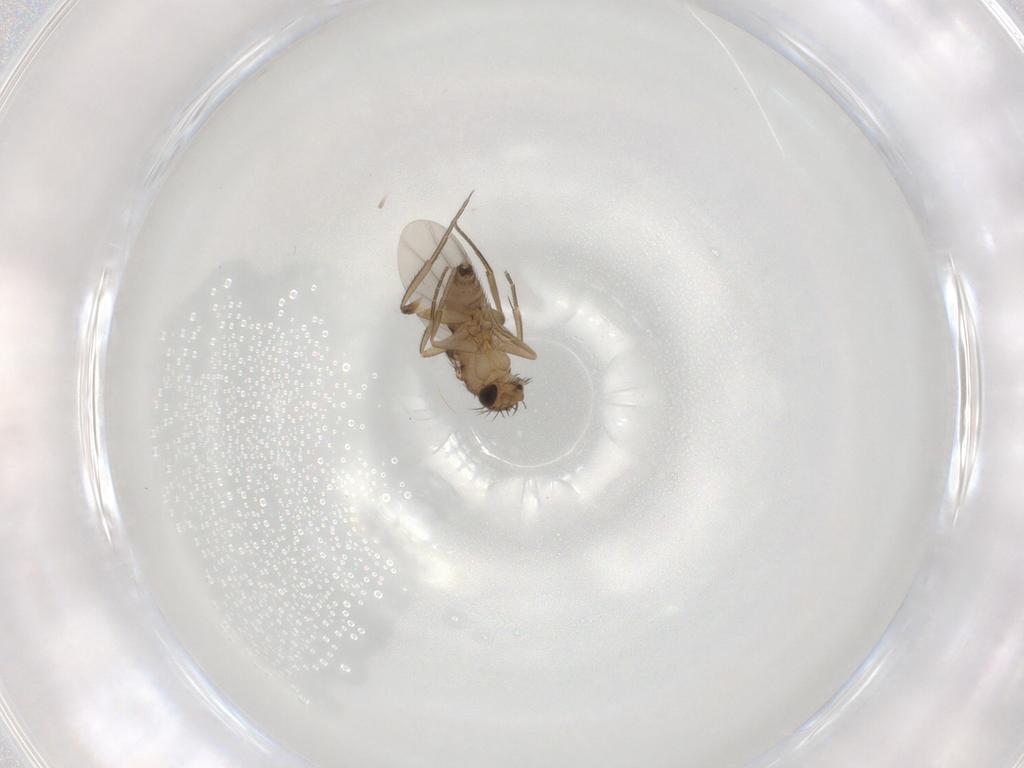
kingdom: Animalia
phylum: Arthropoda
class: Insecta
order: Diptera
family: Phoridae
